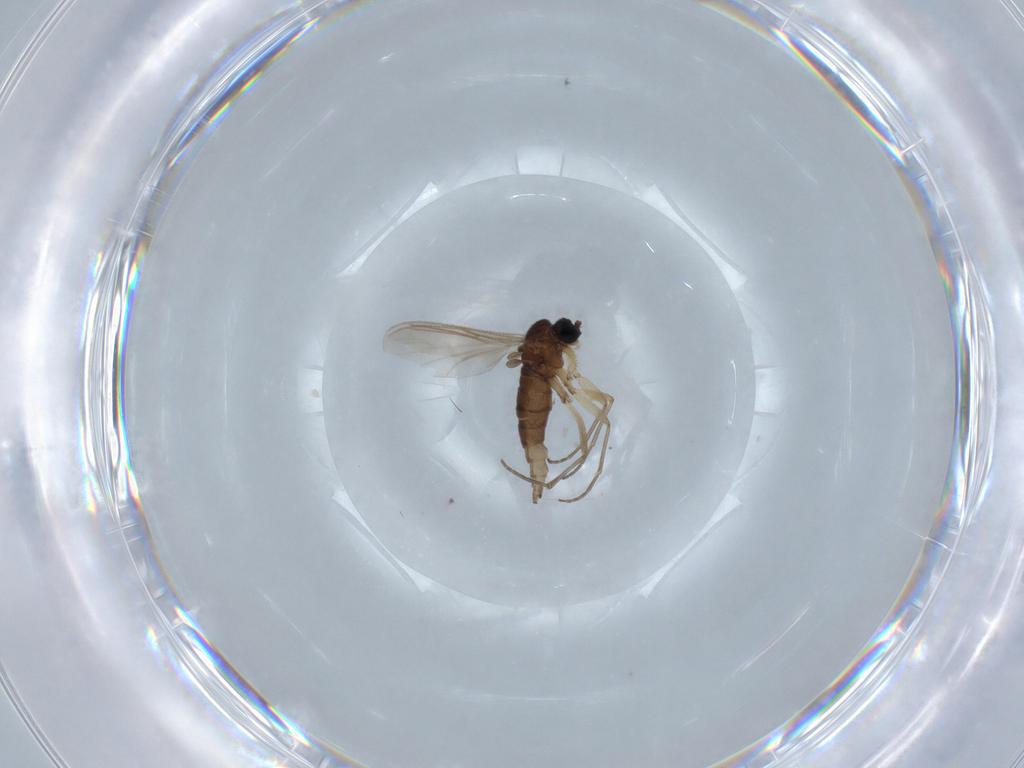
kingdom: Animalia
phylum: Arthropoda
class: Insecta
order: Diptera
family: Sciaridae
